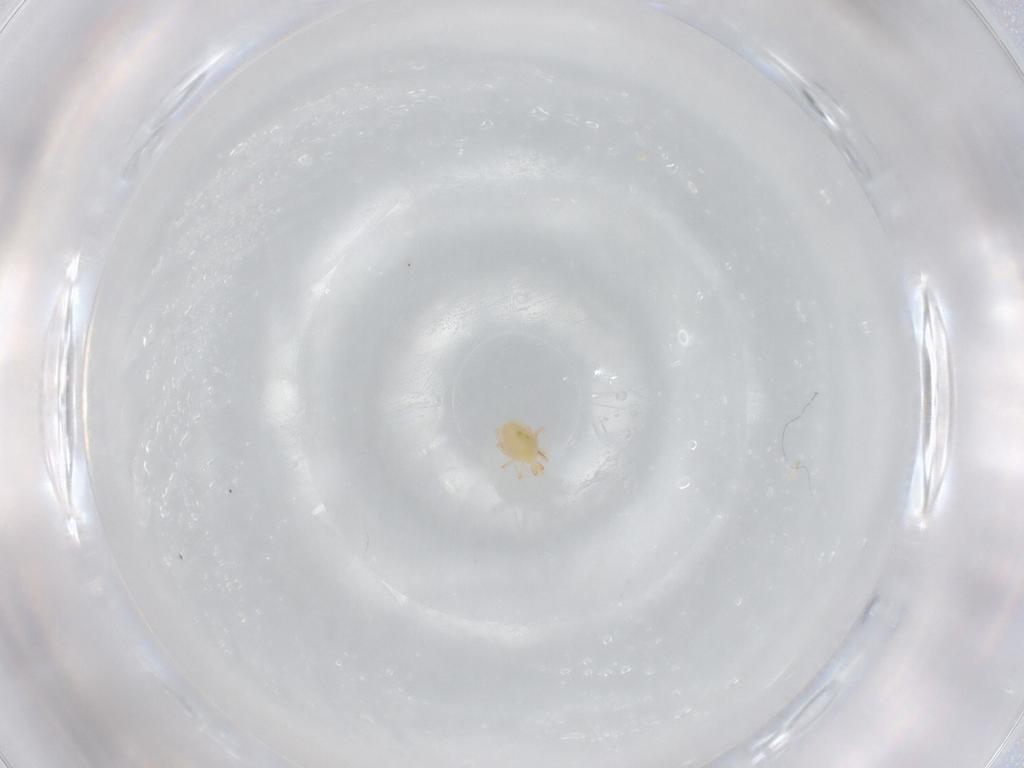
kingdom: Animalia
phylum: Arthropoda
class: Arachnida
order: Trombidiformes
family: Cunaxidae
